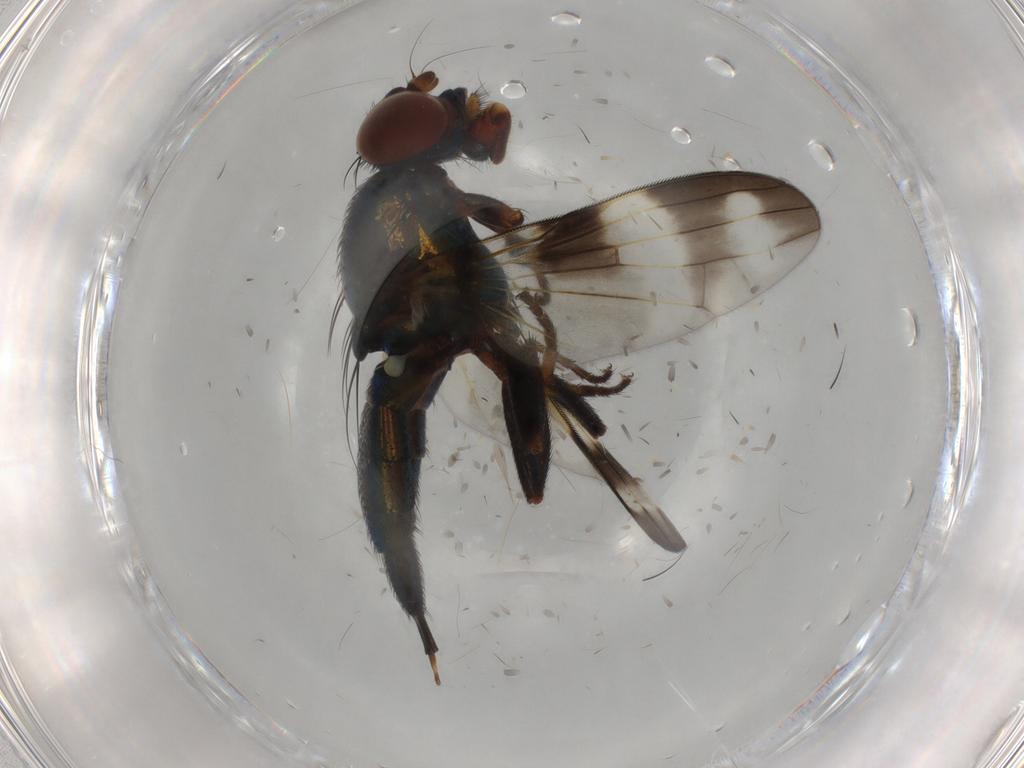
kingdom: Animalia
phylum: Arthropoda
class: Insecta
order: Diptera
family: Ulidiidae
